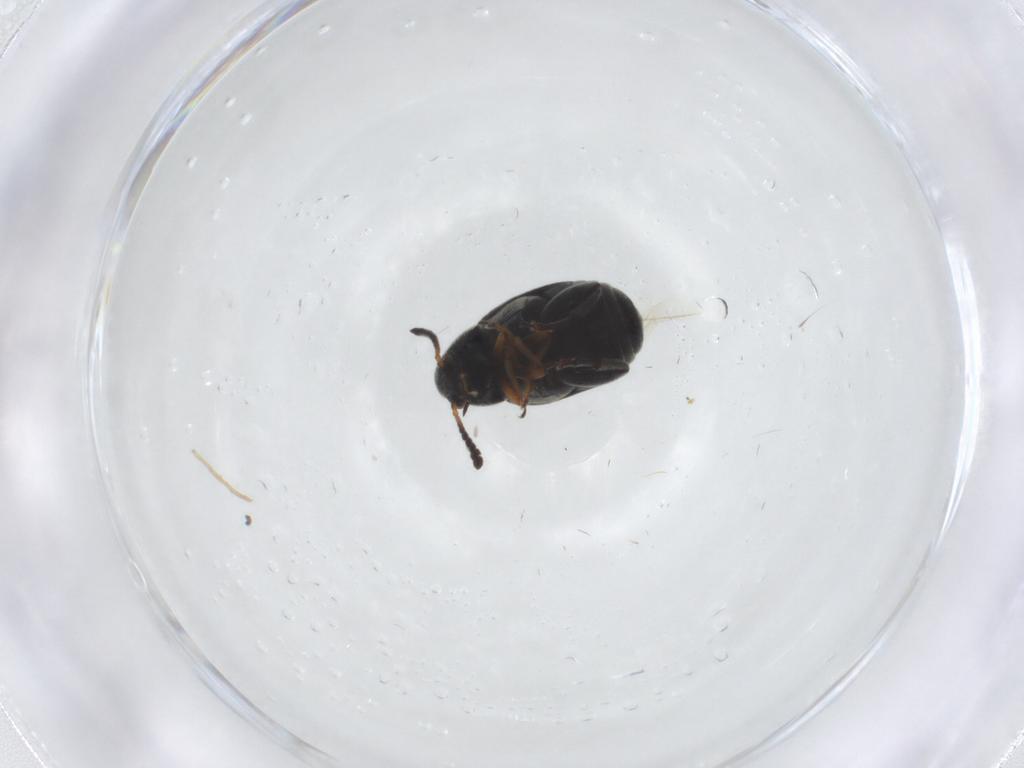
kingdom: Animalia
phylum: Arthropoda
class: Insecta
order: Coleoptera
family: Chrysomelidae
